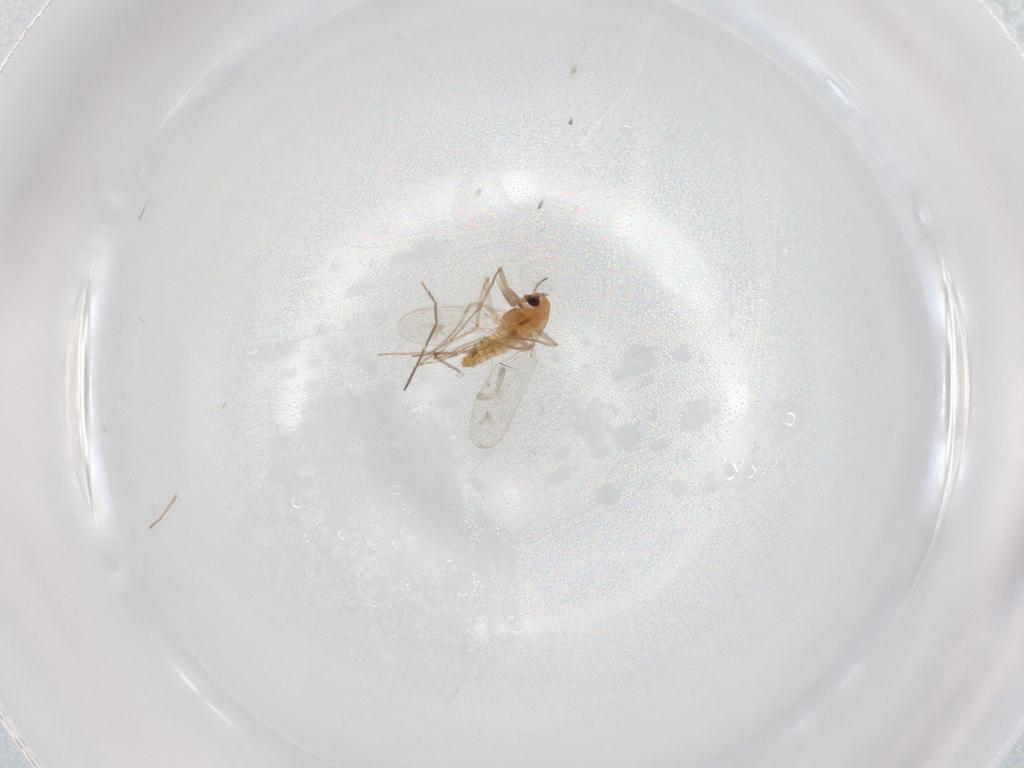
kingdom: Animalia
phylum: Arthropoda
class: Insecta
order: Diptera
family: Chironomidae
